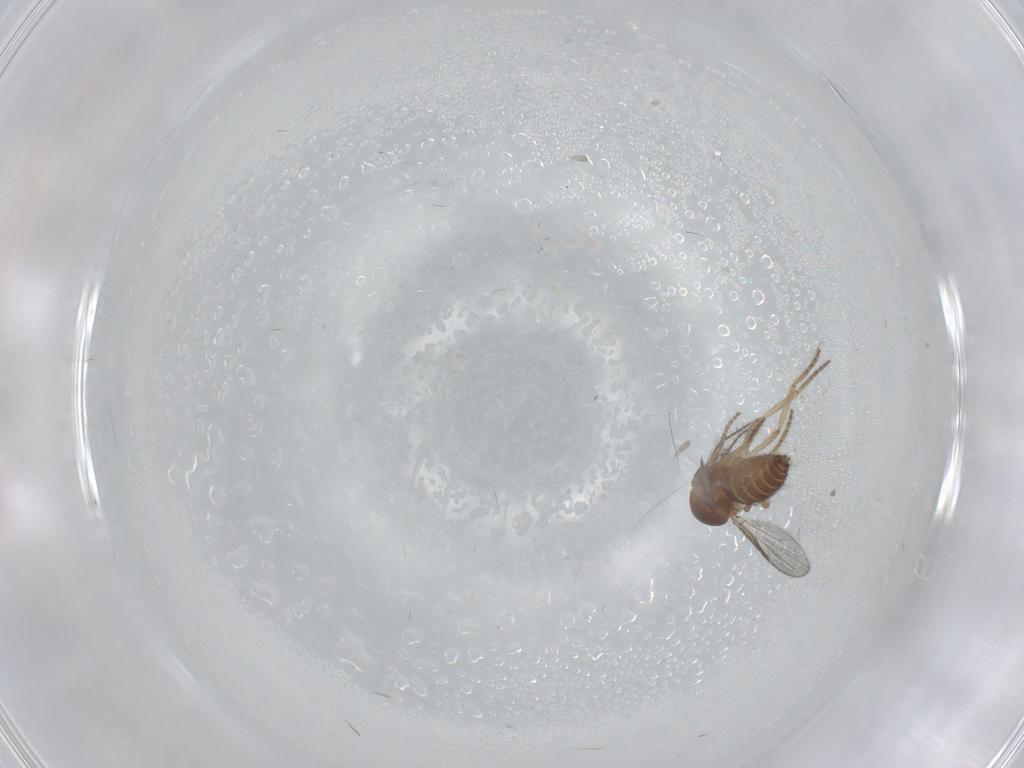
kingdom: Animalia
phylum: Arthropoda
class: Insecta
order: Diptera
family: Ceratopogonidae
